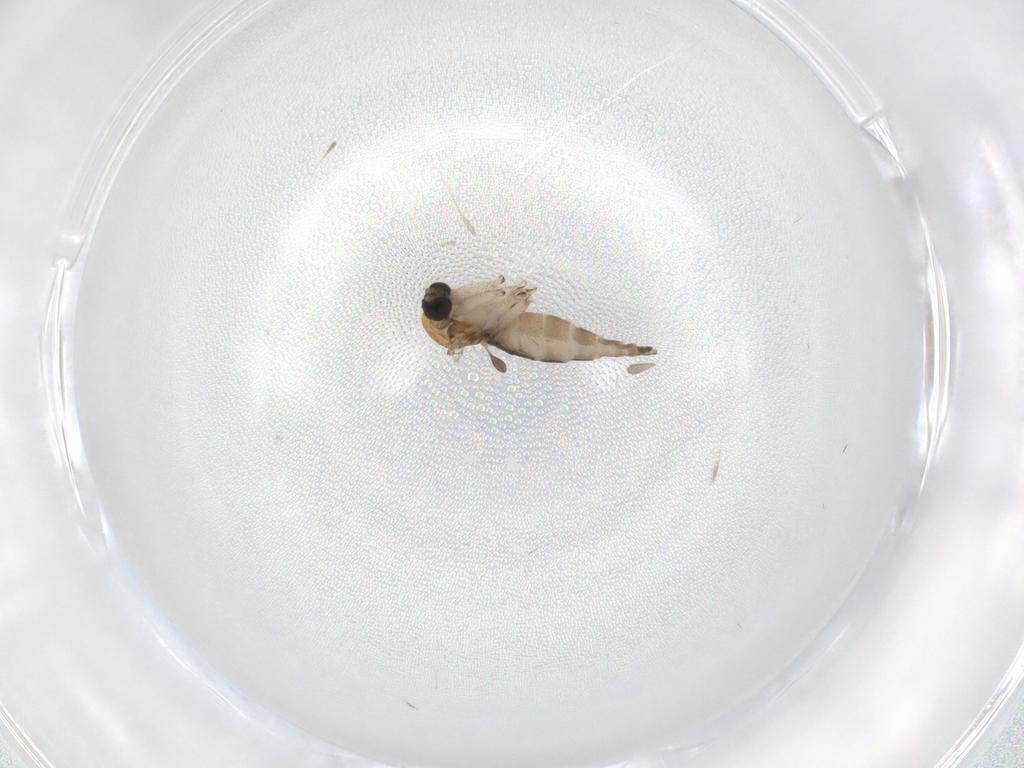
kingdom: Animalia
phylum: Arthropoda
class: Insecta
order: Diptera
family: Sciaridae
